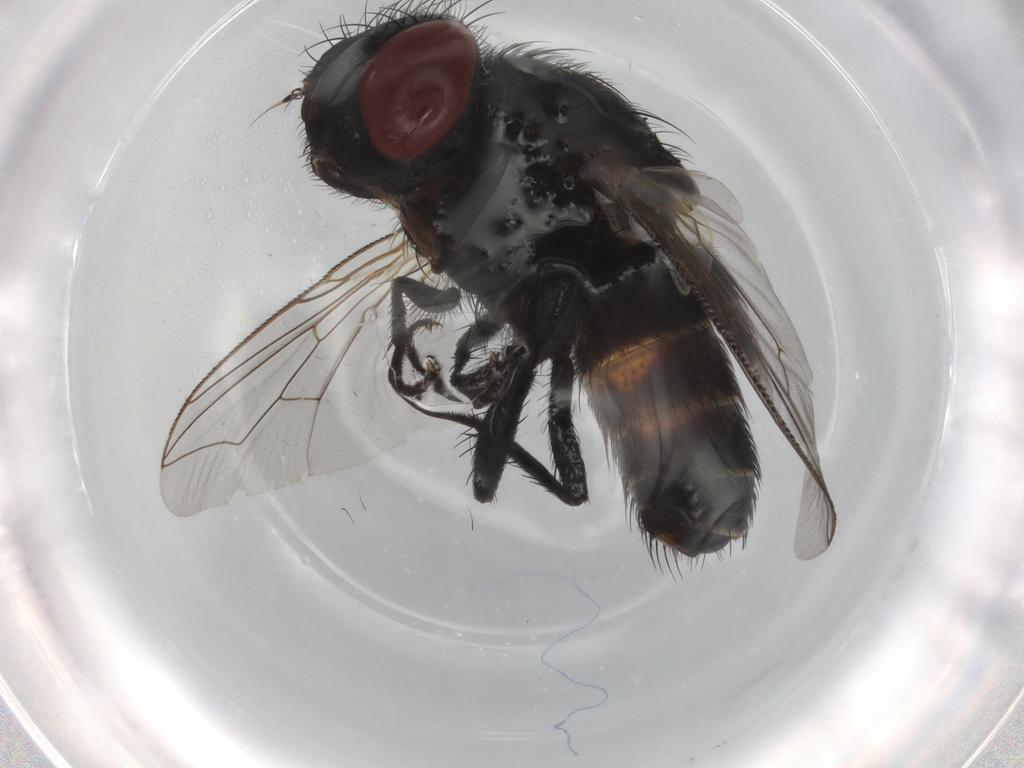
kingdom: Animalia
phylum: Arthropoda
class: Insecta
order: Diptera
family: Sarcophagidae
